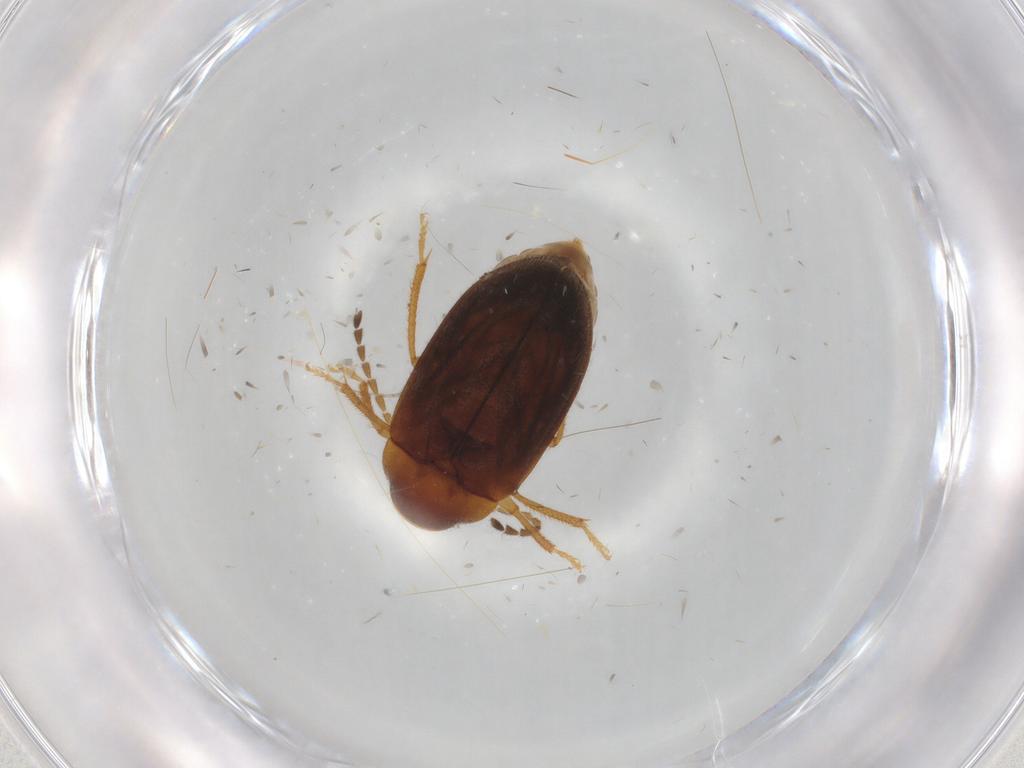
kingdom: Animalia
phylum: Arthropoda
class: Insecta
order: Coleoptera
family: Ptilodactylidae
